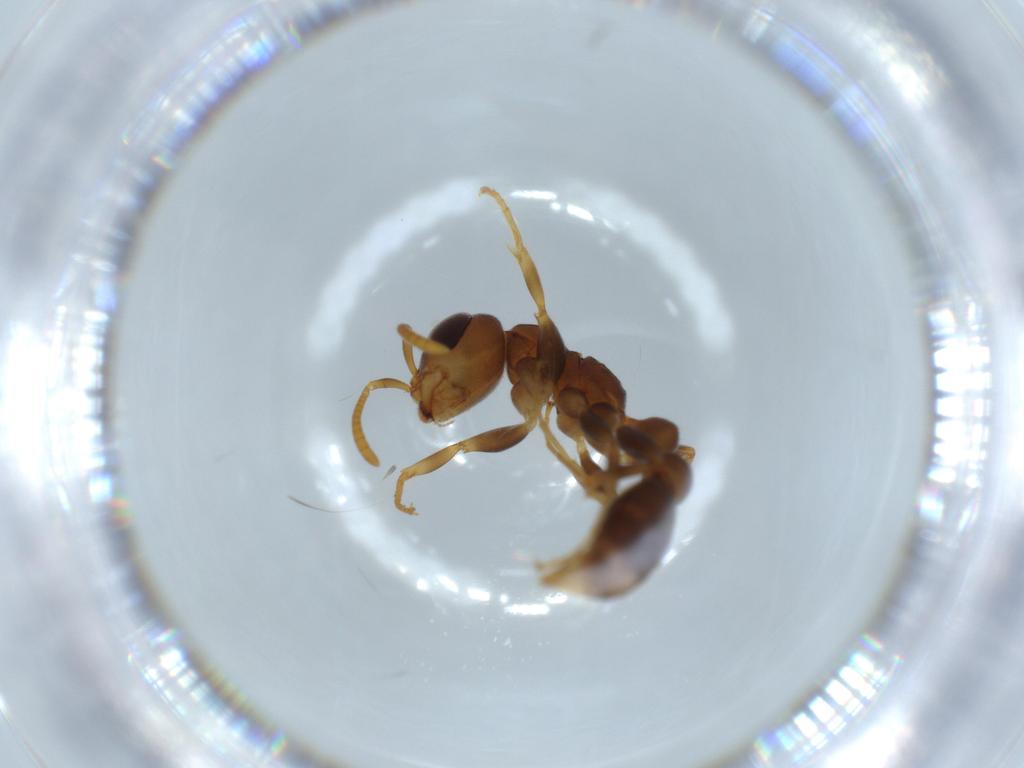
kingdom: Animalia
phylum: Arthropoda
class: Insecta
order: Hymenoptera
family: Formicidae
